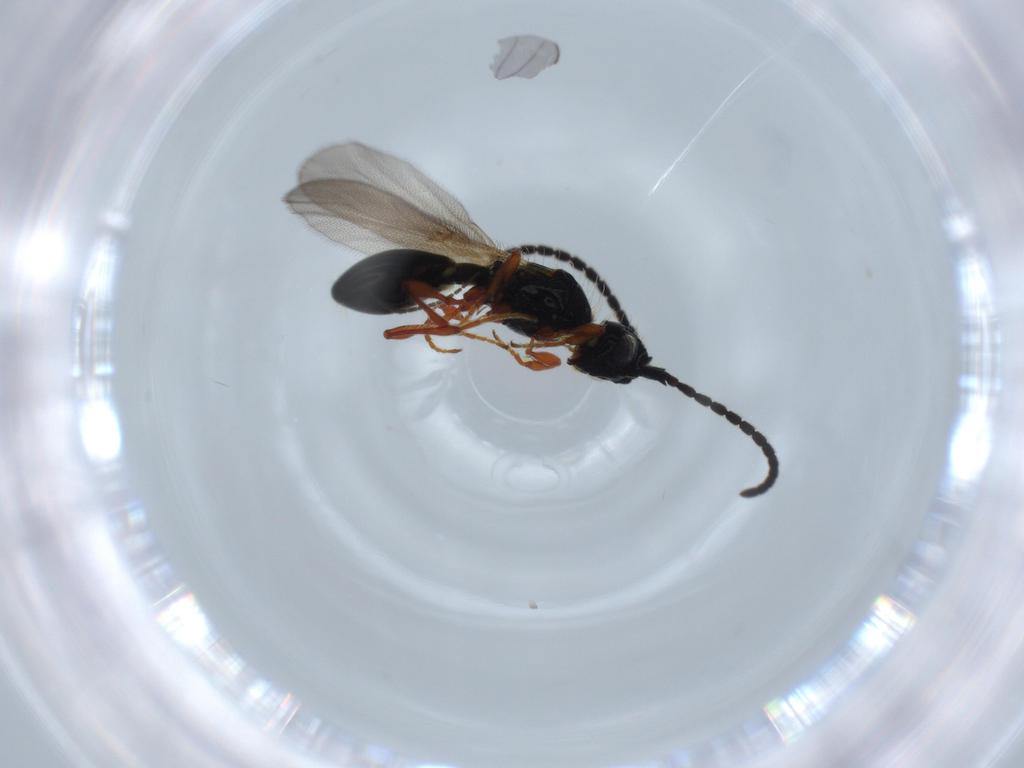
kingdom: Animalia
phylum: Arthropoda
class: Insecta
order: Hymenoptera
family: Diapriidae
